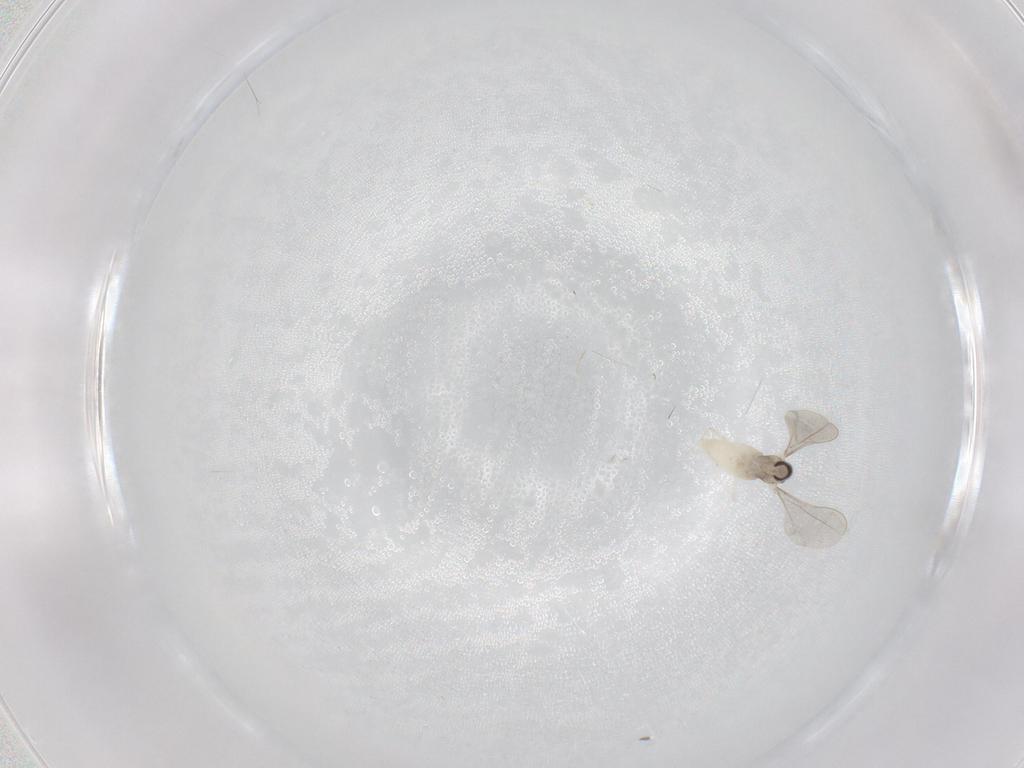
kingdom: Animalia
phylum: Arthropoda
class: Insecta
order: Diptera
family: Cecidomyiidae
